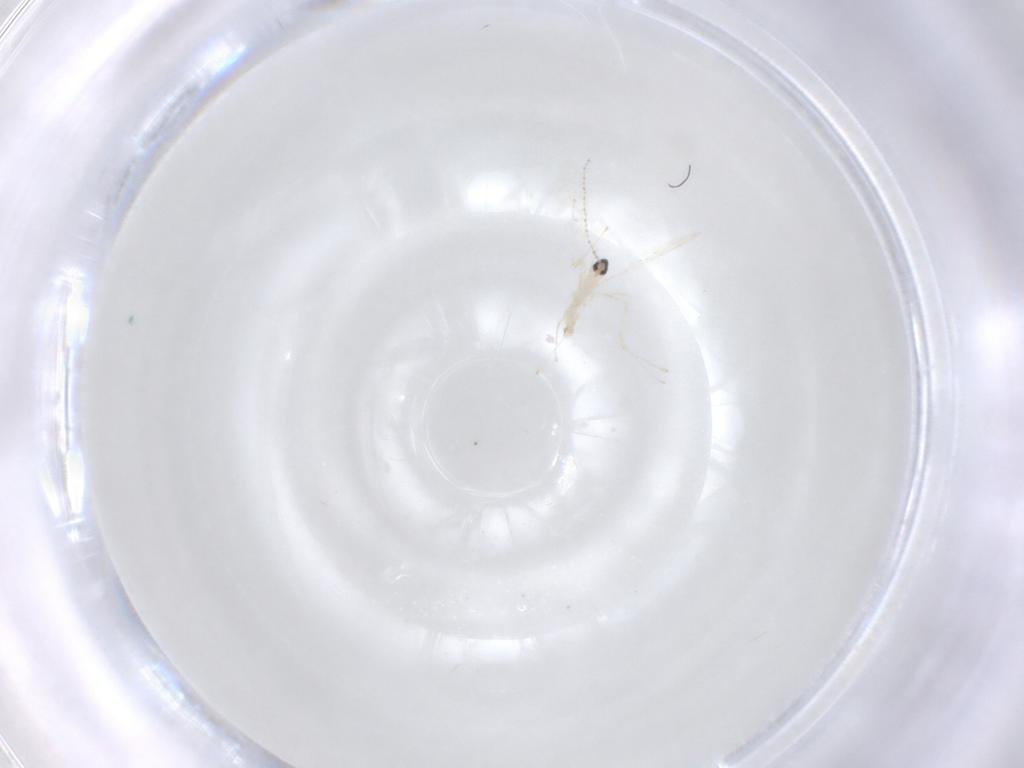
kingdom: Animalia
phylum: Arthropoda
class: Insecta
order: Diptera
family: Cecidomyiidae
